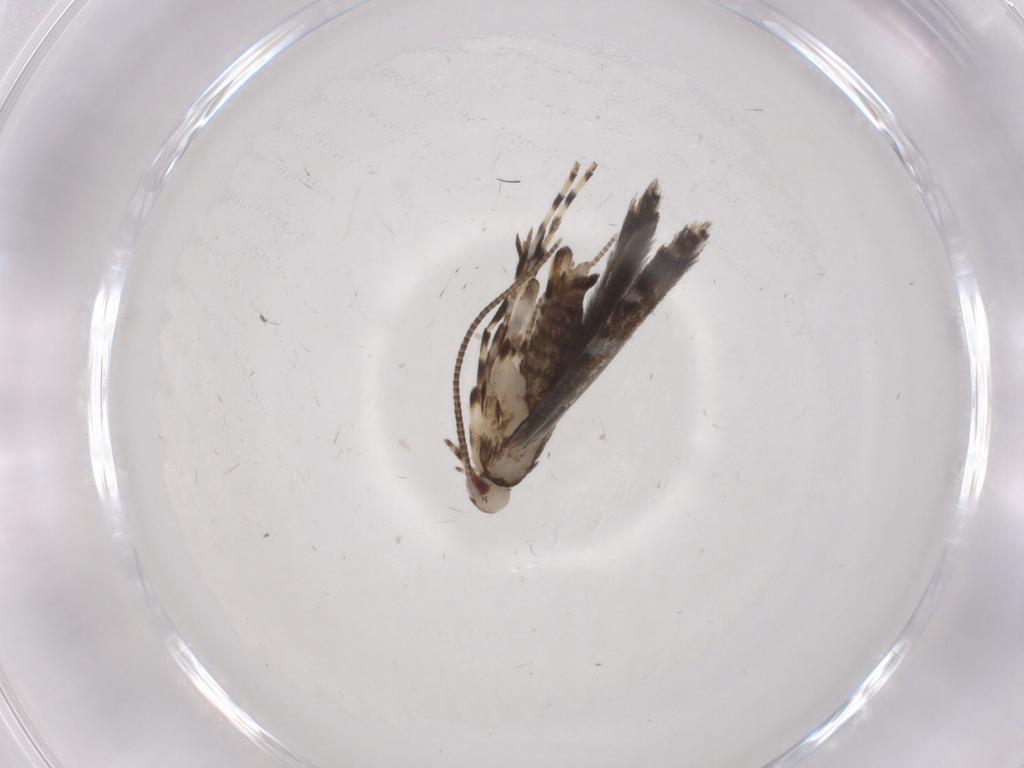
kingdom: Animalia
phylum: Arthropoda
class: Insecta
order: Lepidoptera
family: Gracillariidae
